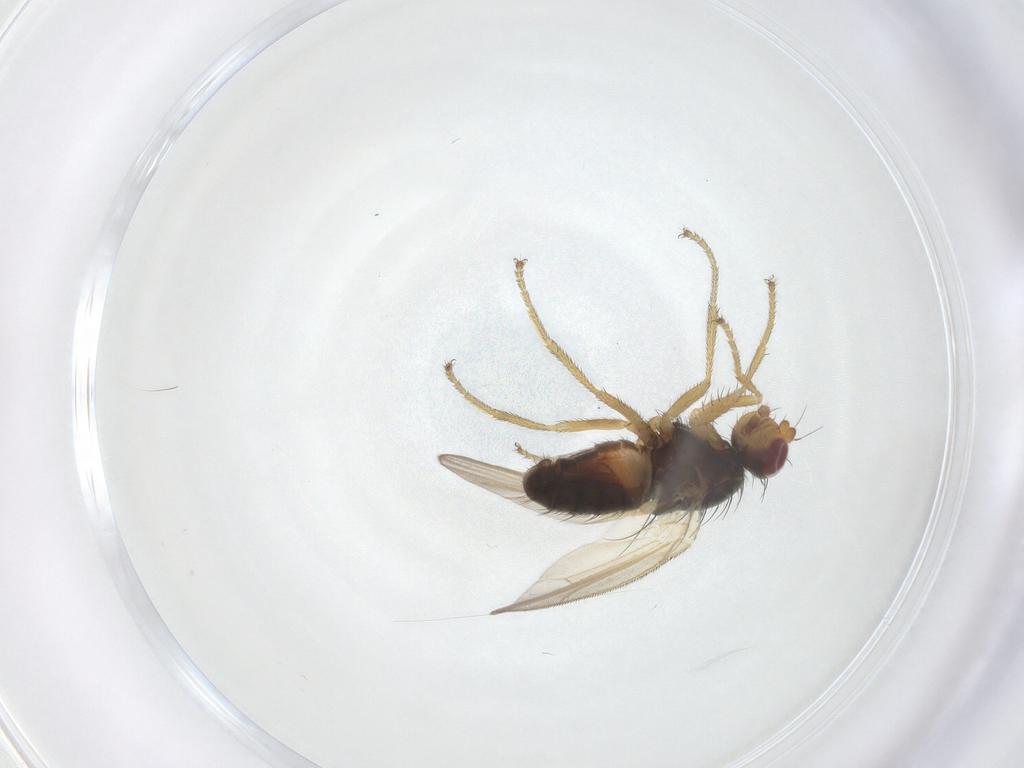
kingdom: Animalia
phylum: Arthropoda
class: Insecta
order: Diptera
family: Heleomyzidae
